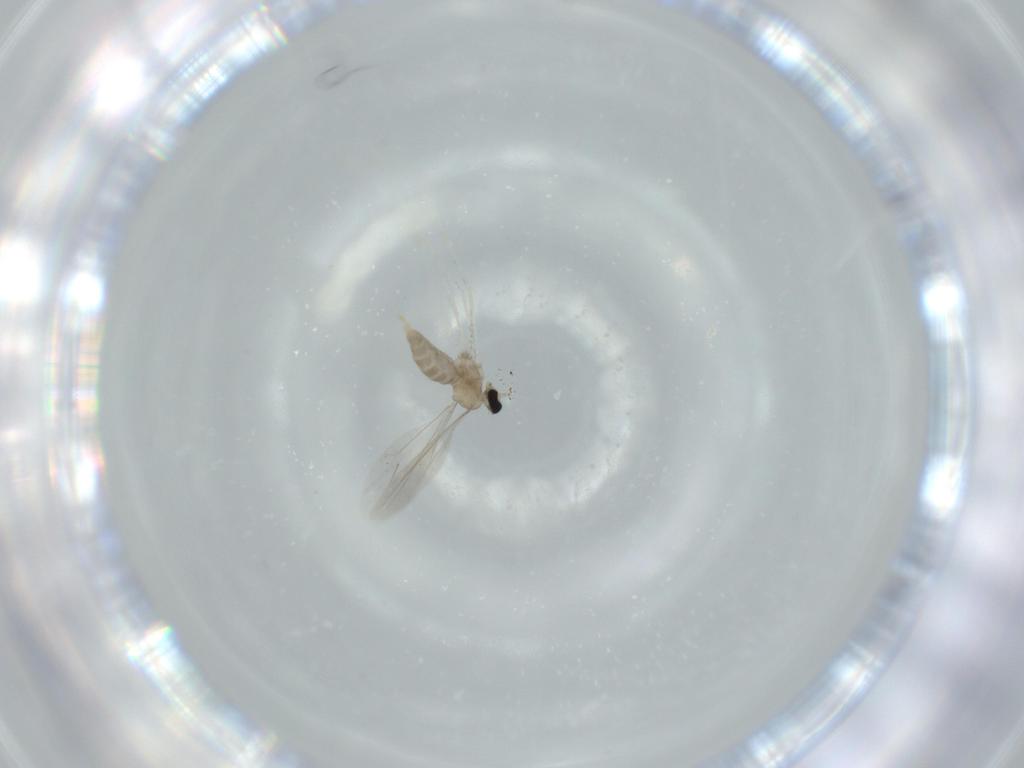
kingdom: Animalia
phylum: Arthropoda
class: Insecta
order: Diptera
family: Cecidomyiidae
